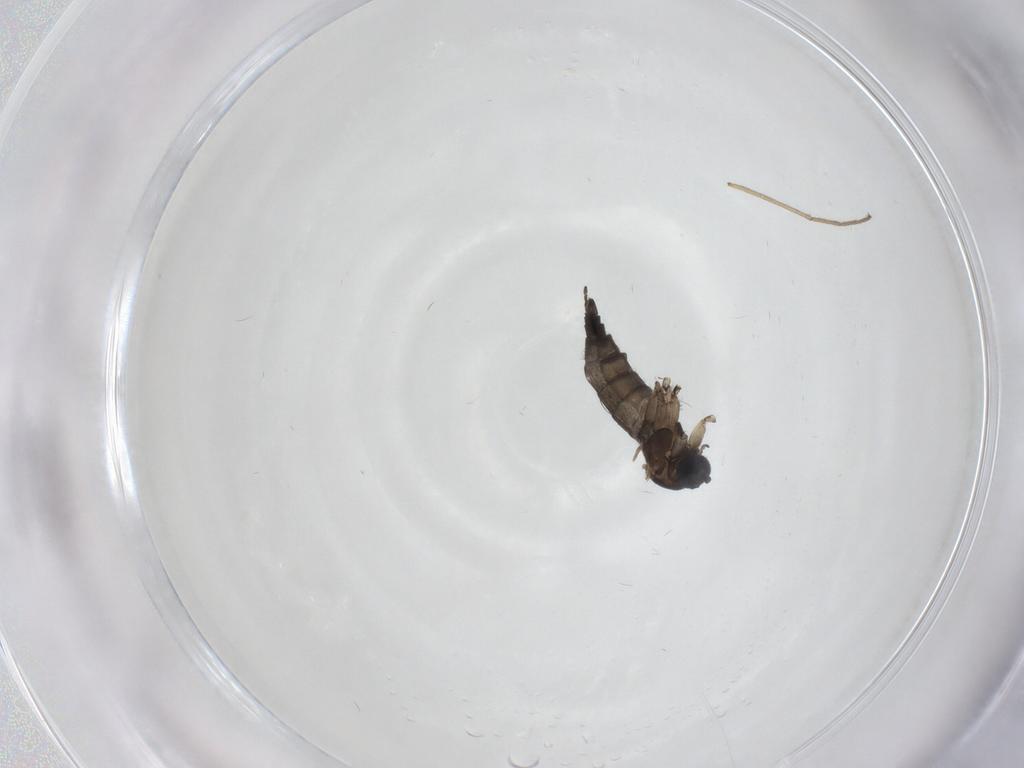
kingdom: Animalia
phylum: Arthropoda
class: Insecta
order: Diptera
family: Sciaridae
